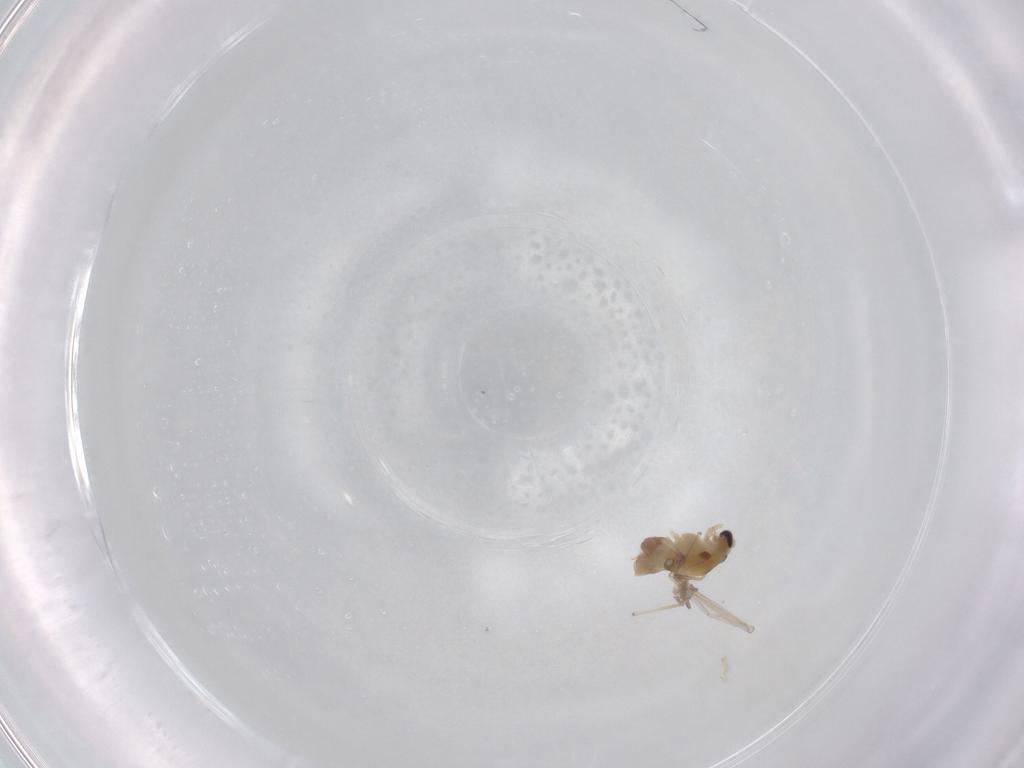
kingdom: Animalia
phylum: Arthropoda
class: Insecta
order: Diptera
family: Chironomidae
